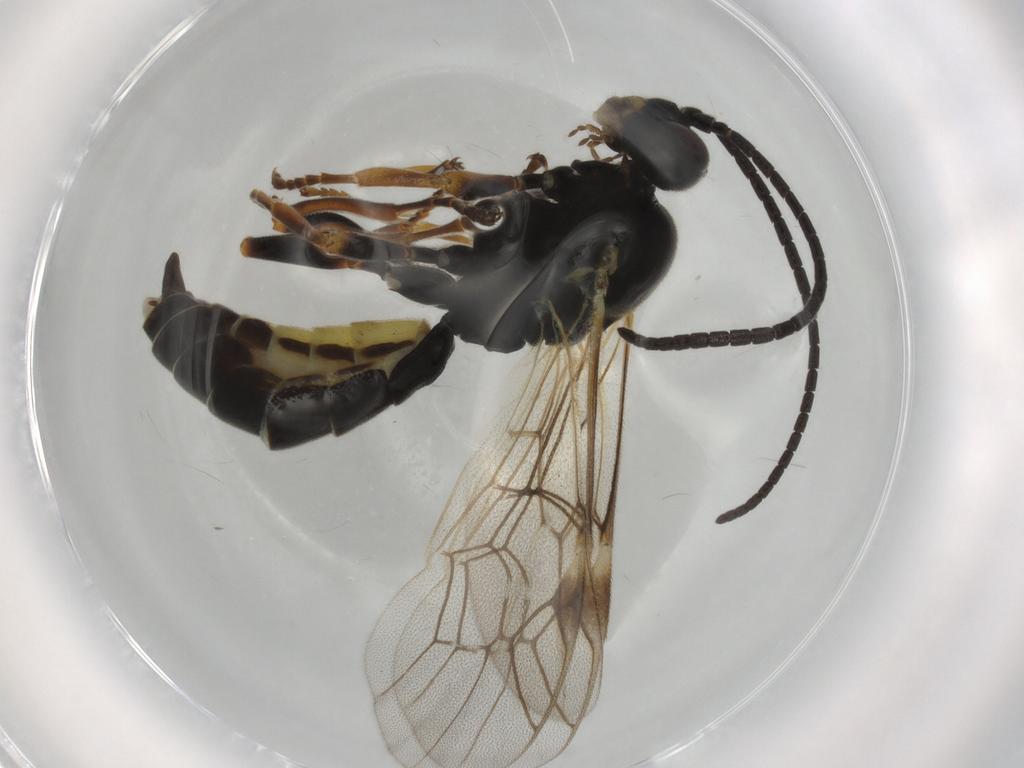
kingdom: Animalia
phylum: Arthropoda
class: Insecta
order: Hymenoptera
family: Ichneumonidae
